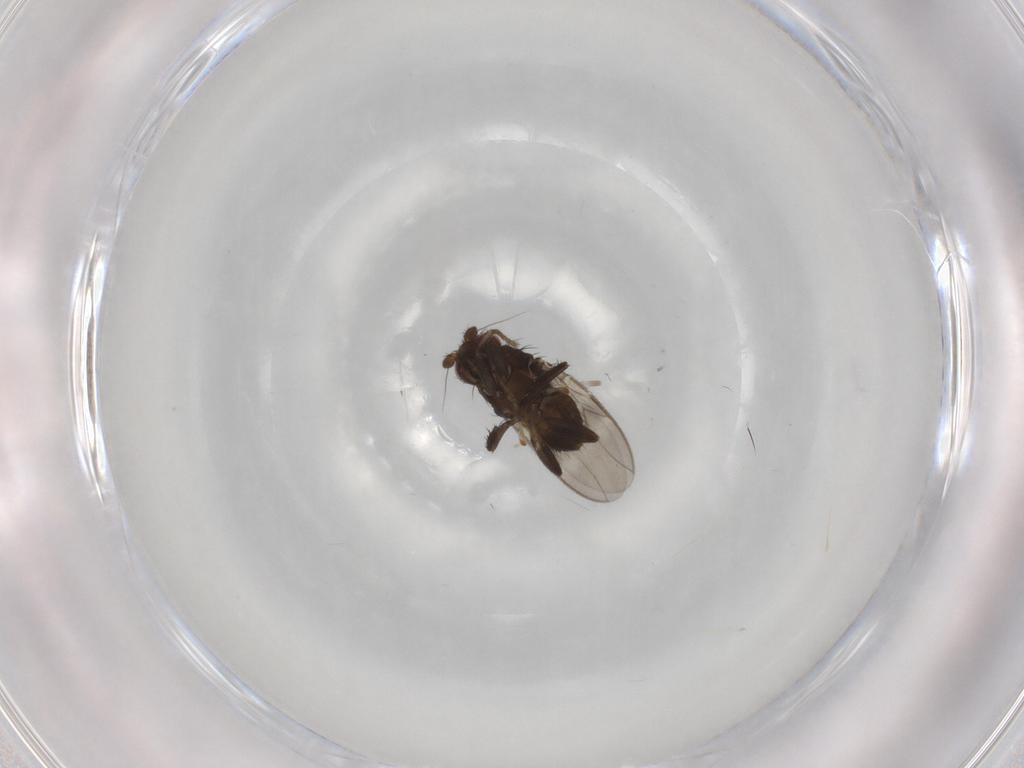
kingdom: Animalia
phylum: Arthropoda
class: Insecta
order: Diptera
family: Sphaeroceridae
